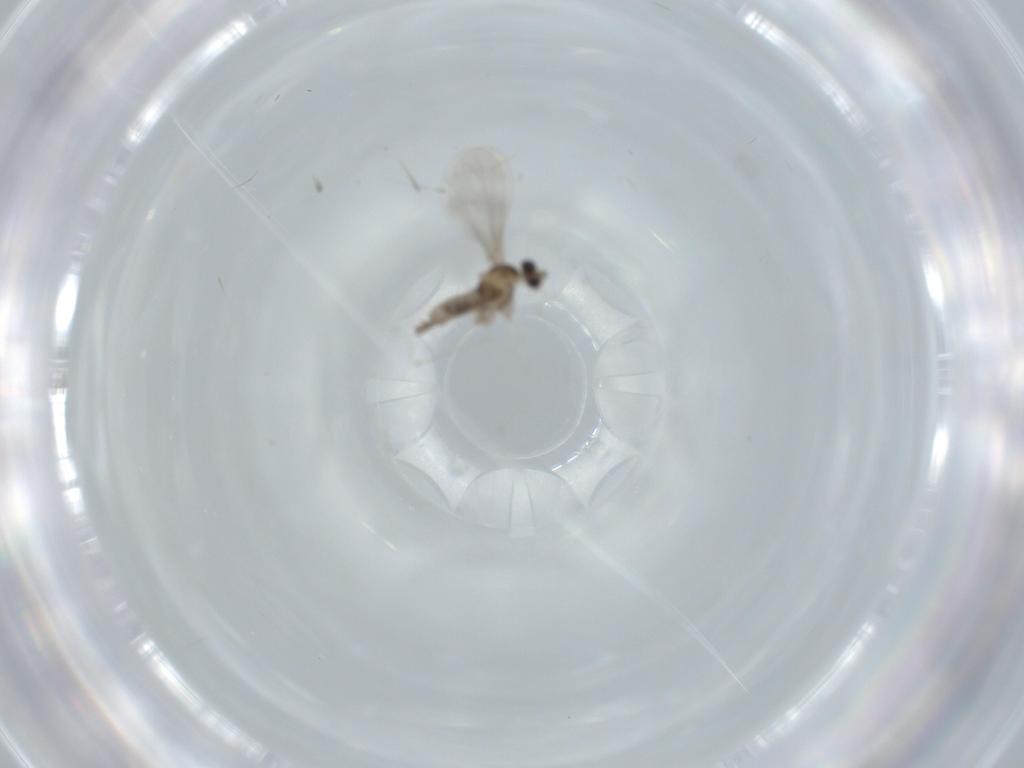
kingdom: Animalia
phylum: Arthropoda
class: Insecta
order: Diptera
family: Cecidomyiidae
